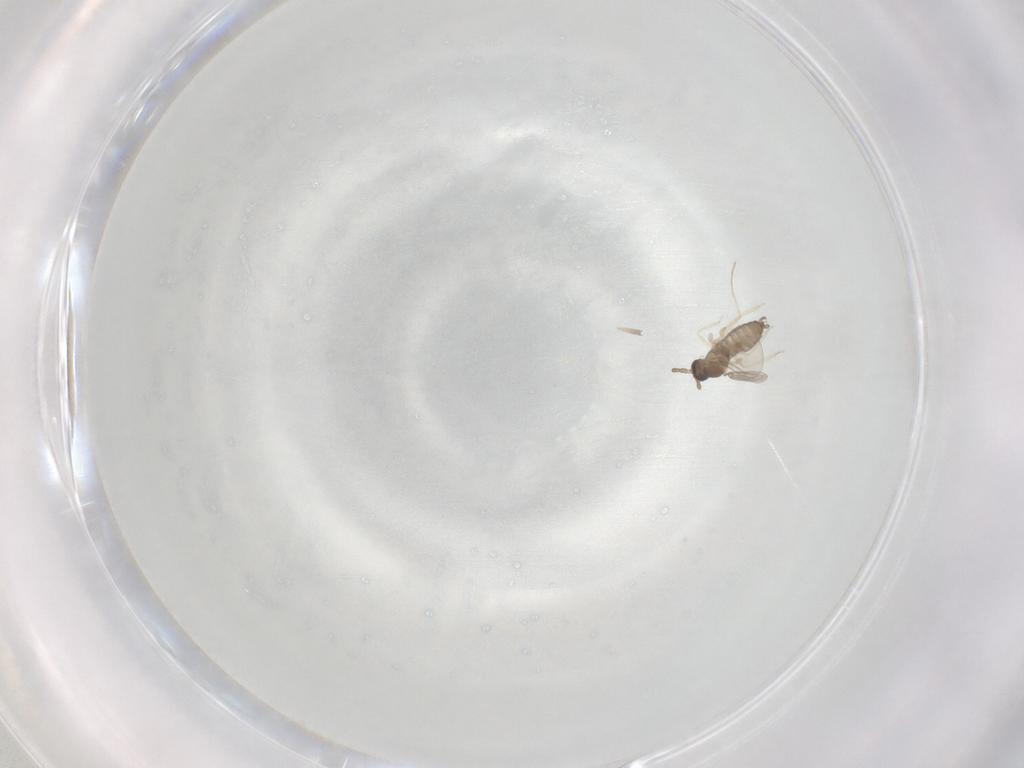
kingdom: Animalia
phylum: Arthropoda
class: Insecta
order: Diptera
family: Cecidomyiidae
